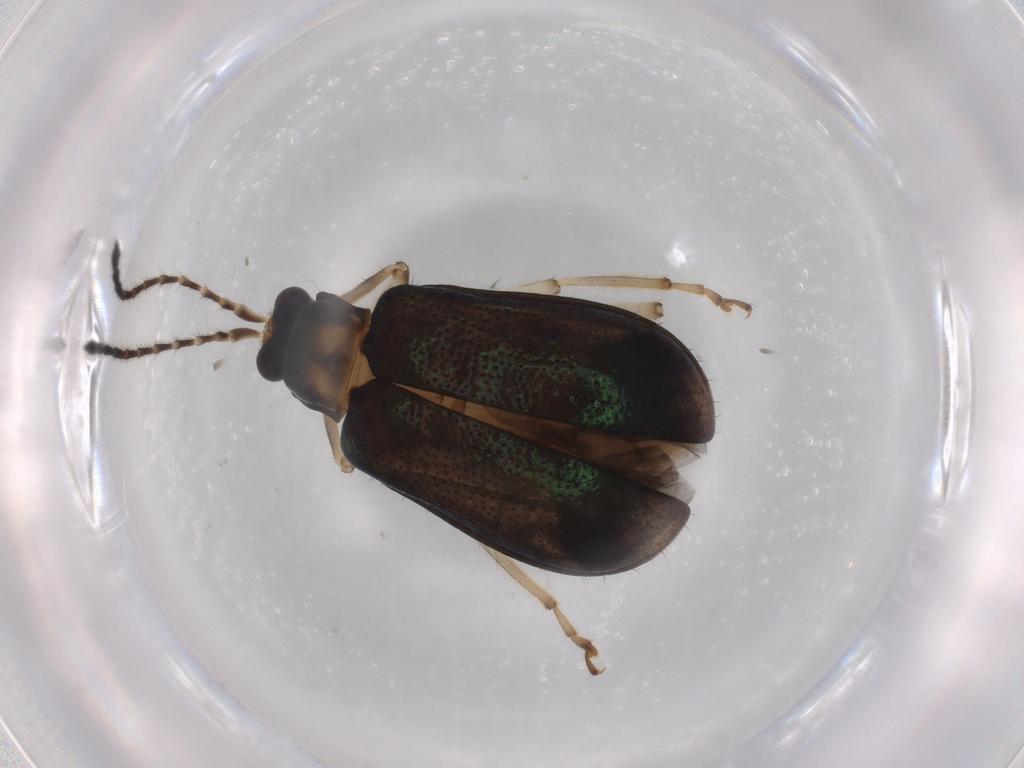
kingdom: Animalia
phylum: Arthropoda
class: Insecta
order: Coleoptera
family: Chrysomelidae
